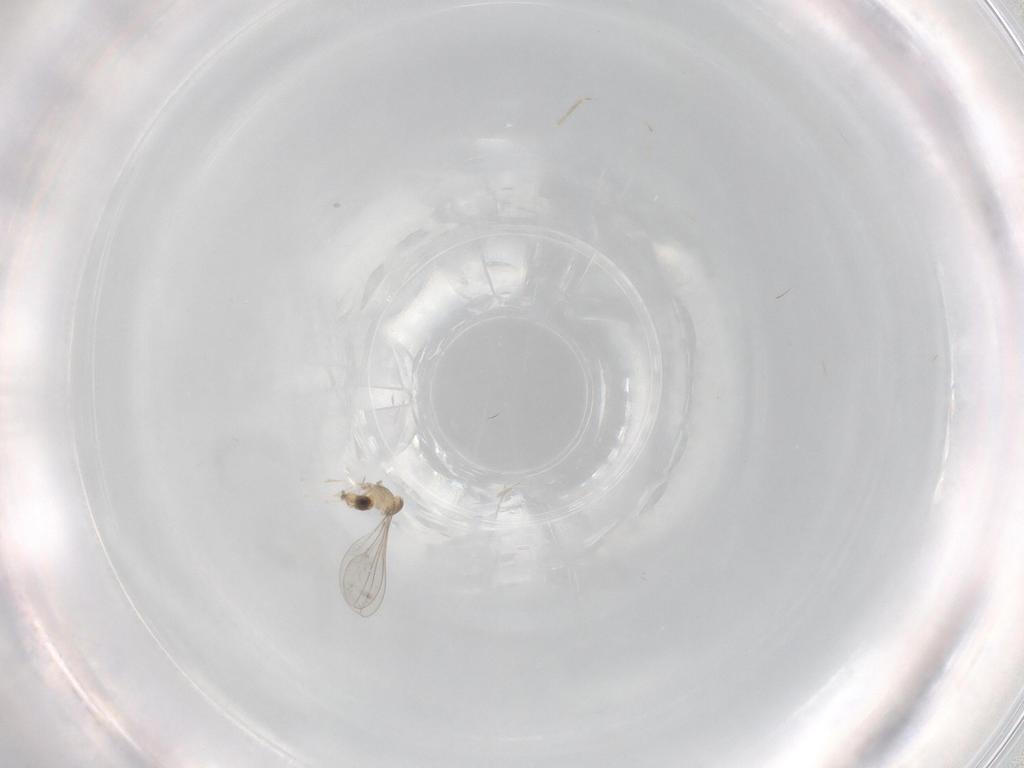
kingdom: Animalia
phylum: Arthropoda
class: Insecta
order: Diptera
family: Cecidomyiidae
